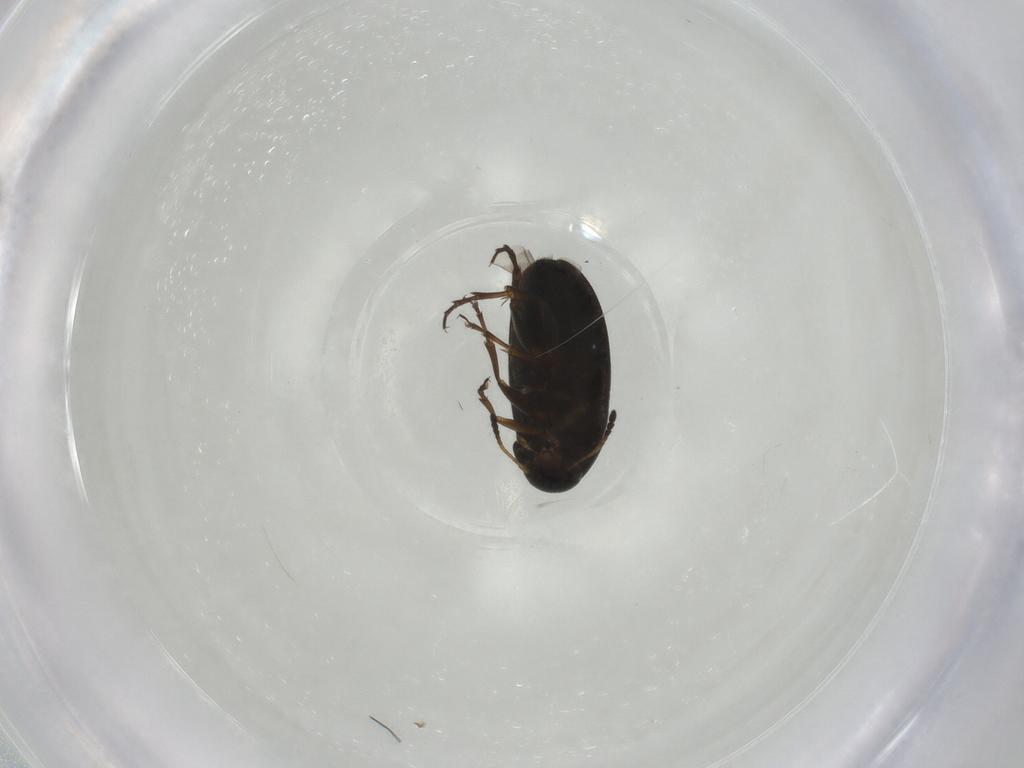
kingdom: Animalia
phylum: Arthropoda
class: Insecta
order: Coleoptera
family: Scraptiidae
